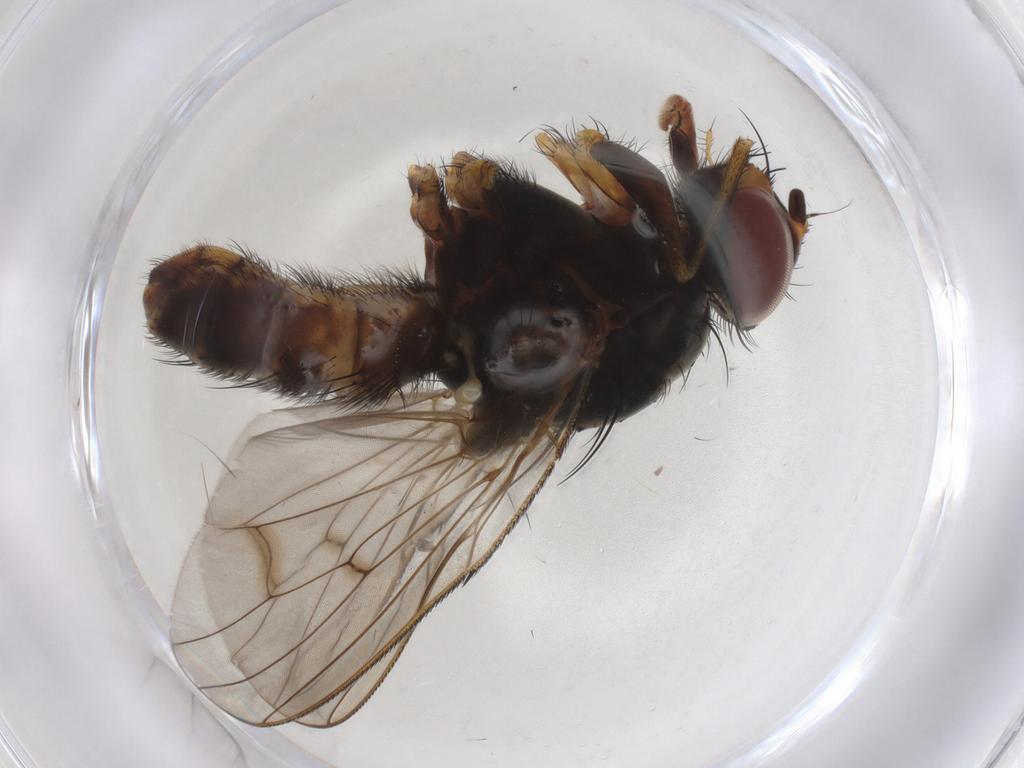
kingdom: Animalia
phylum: Arthropoda
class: Insecta
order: Diptera
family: Anthomyiidae
